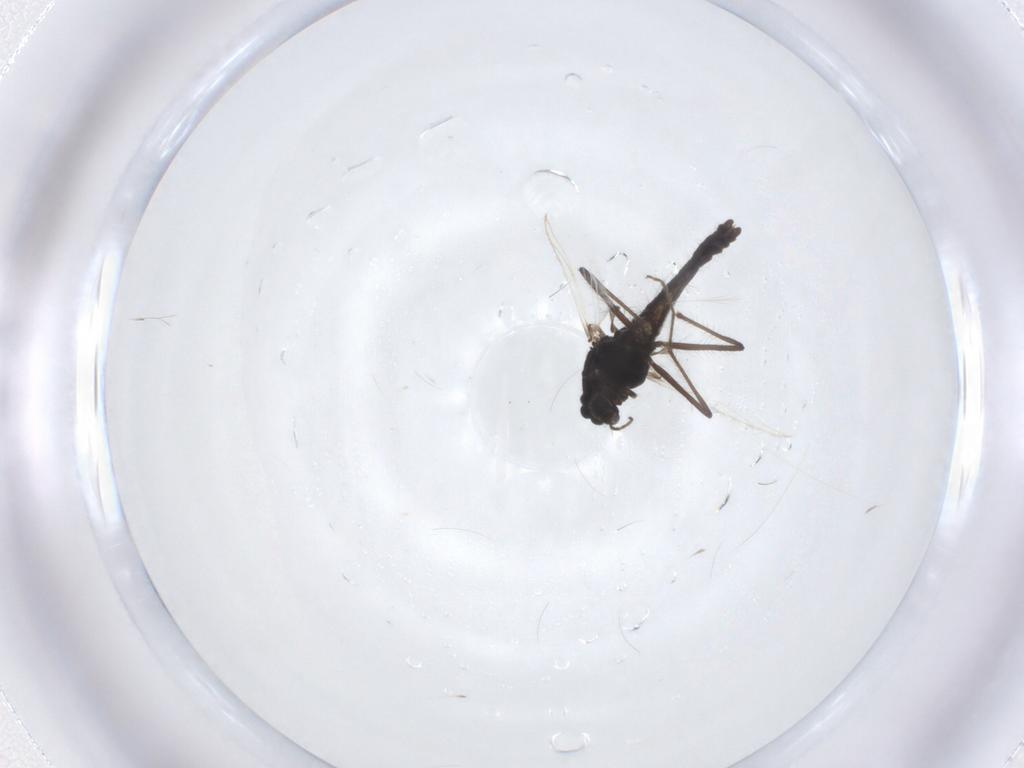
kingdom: Animalia
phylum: Arthropoda
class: Insecta
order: Diptera
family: Chironomidae
